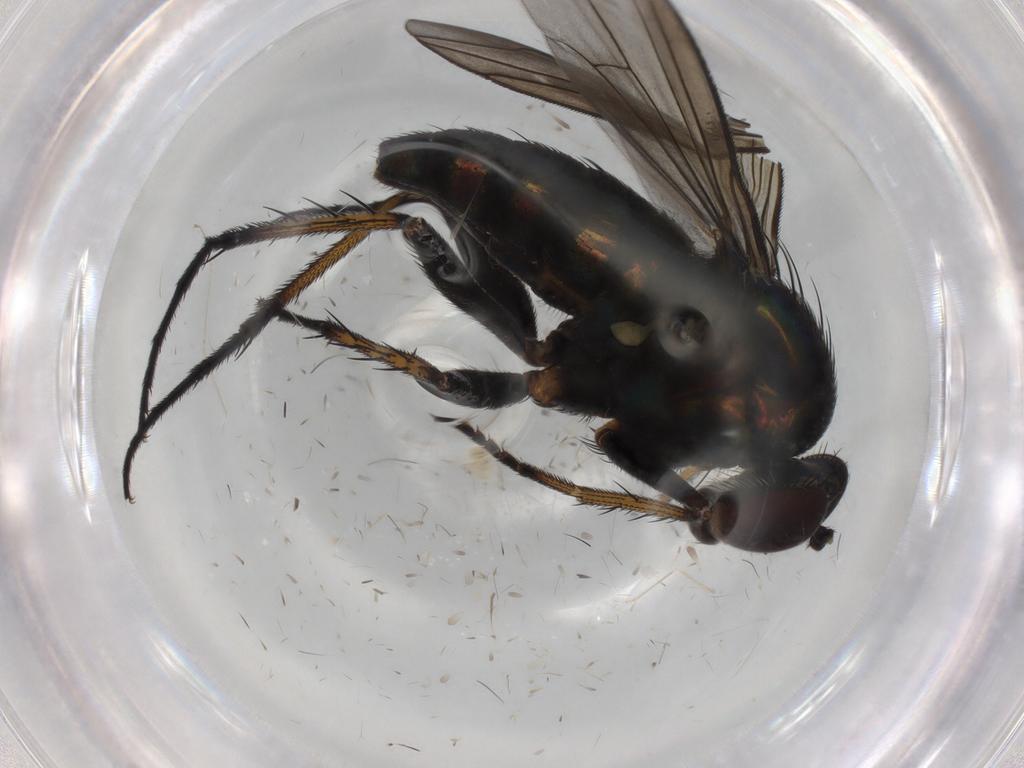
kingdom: Animalia
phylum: Arthropoda
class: Insecta
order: Diptera
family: Dolichopodidae
